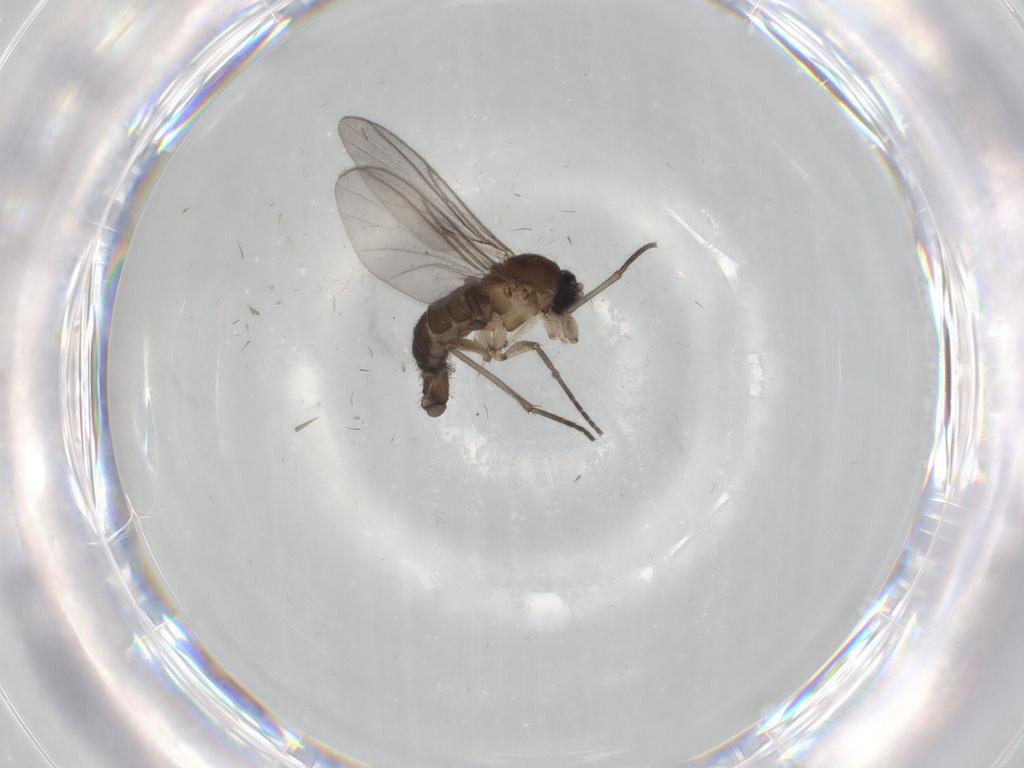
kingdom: Animalia
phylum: Arthropoda
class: Insecta
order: Diptera
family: Sciaridae
